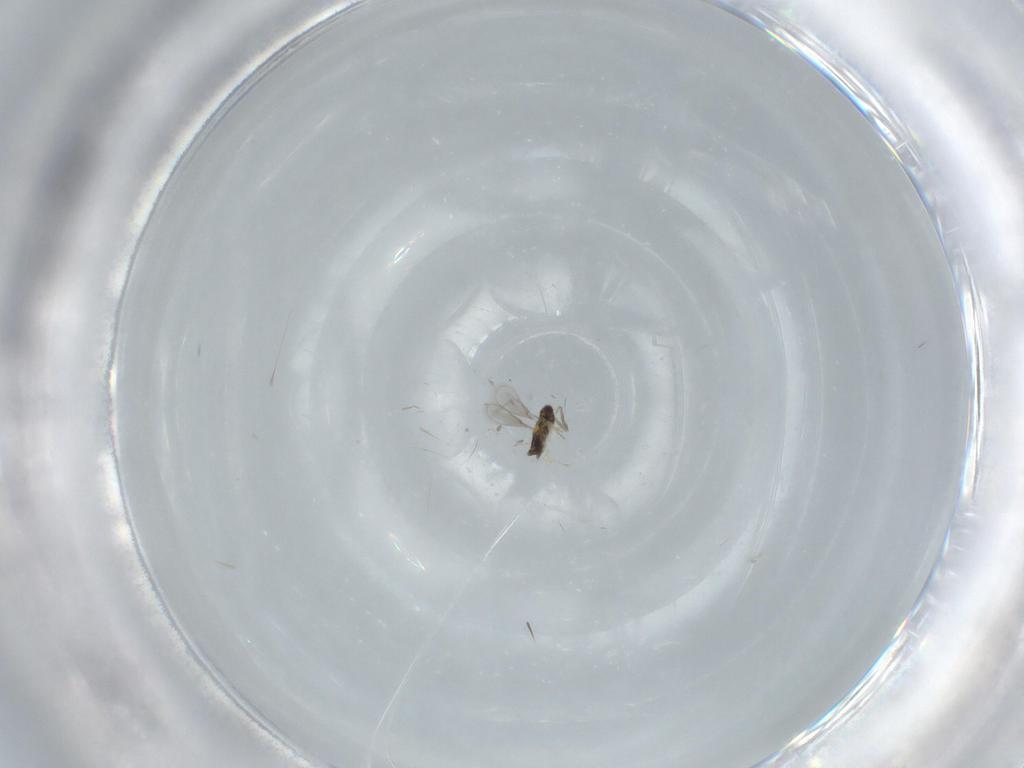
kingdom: Animalia
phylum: Arthropoda
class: Insecta
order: Hymenoptera
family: Aphelinidae
